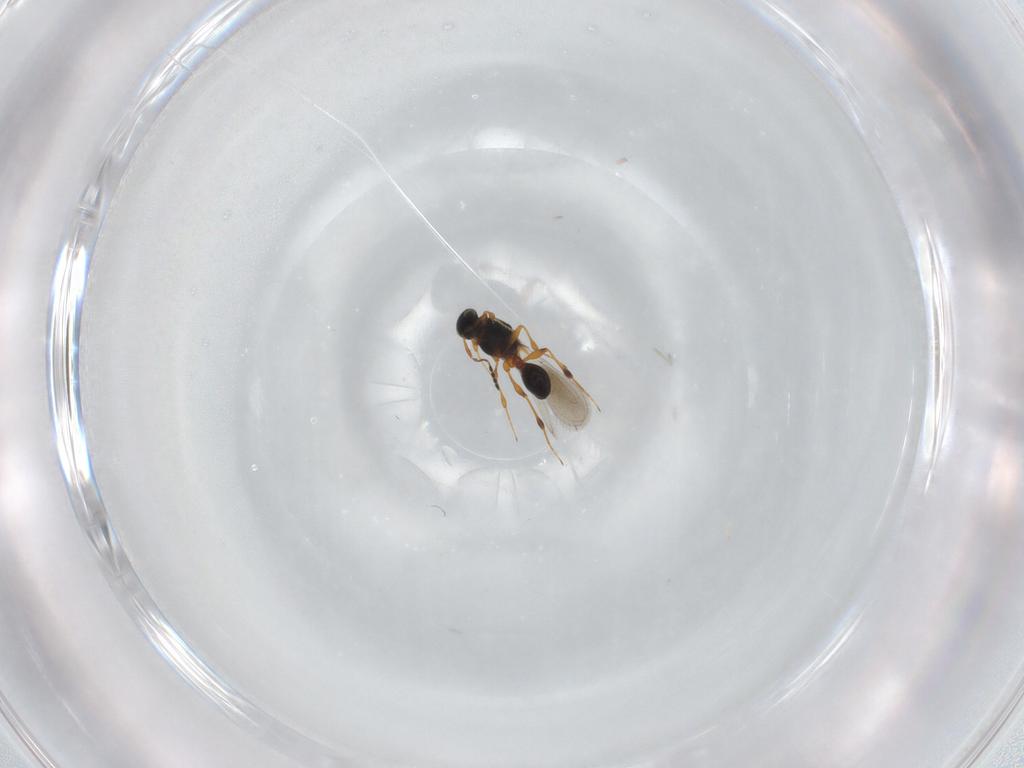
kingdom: Animalia
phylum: Arthropoda
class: Insecta
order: Hymenoptera
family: Platygastridae
